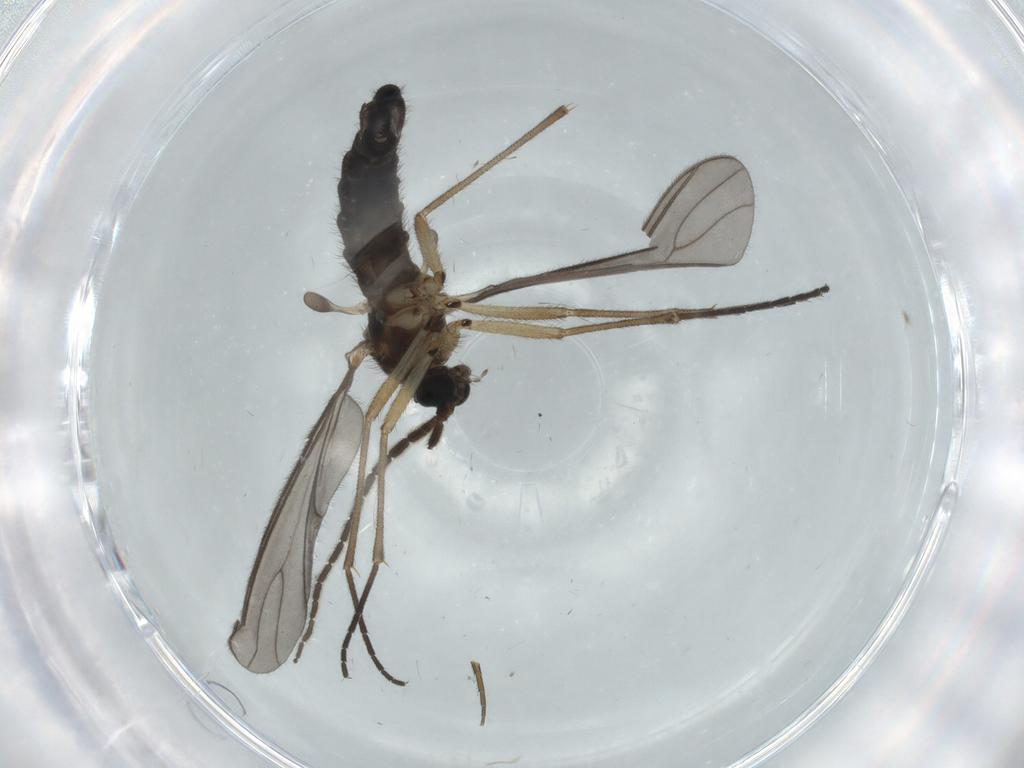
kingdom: Animalia
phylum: Arthropoda
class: Insecta
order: Diptera
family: Sciaridae
